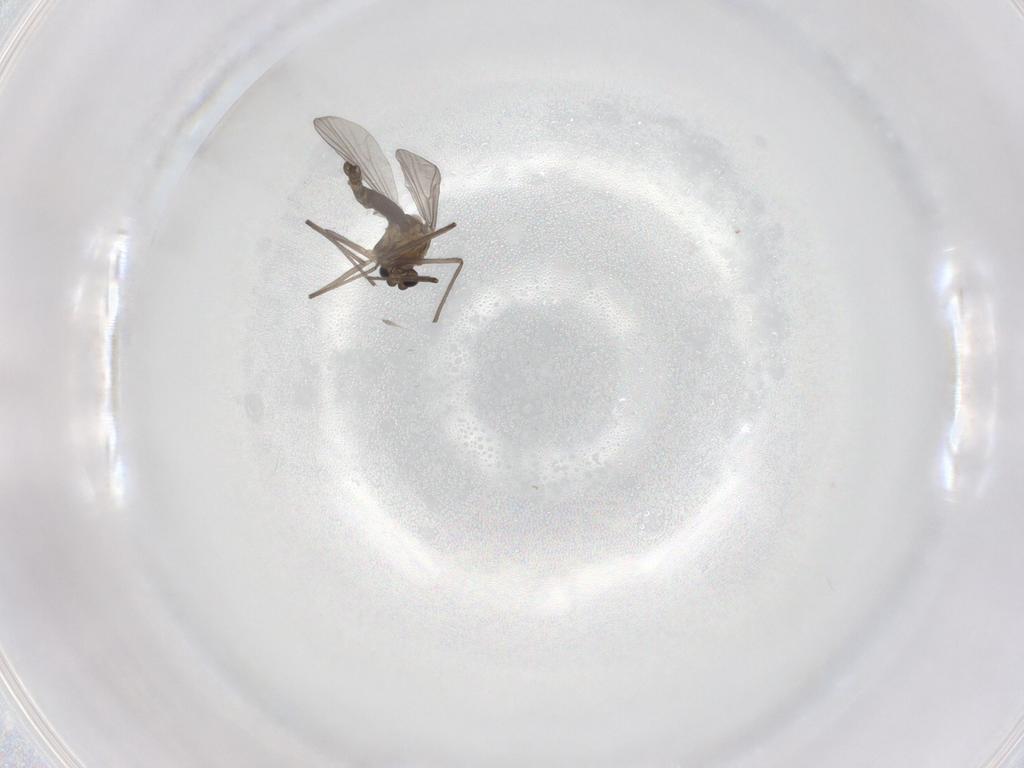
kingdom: Animalia
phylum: Arthropoda
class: Insecta
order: Diptera
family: Chironomidae
